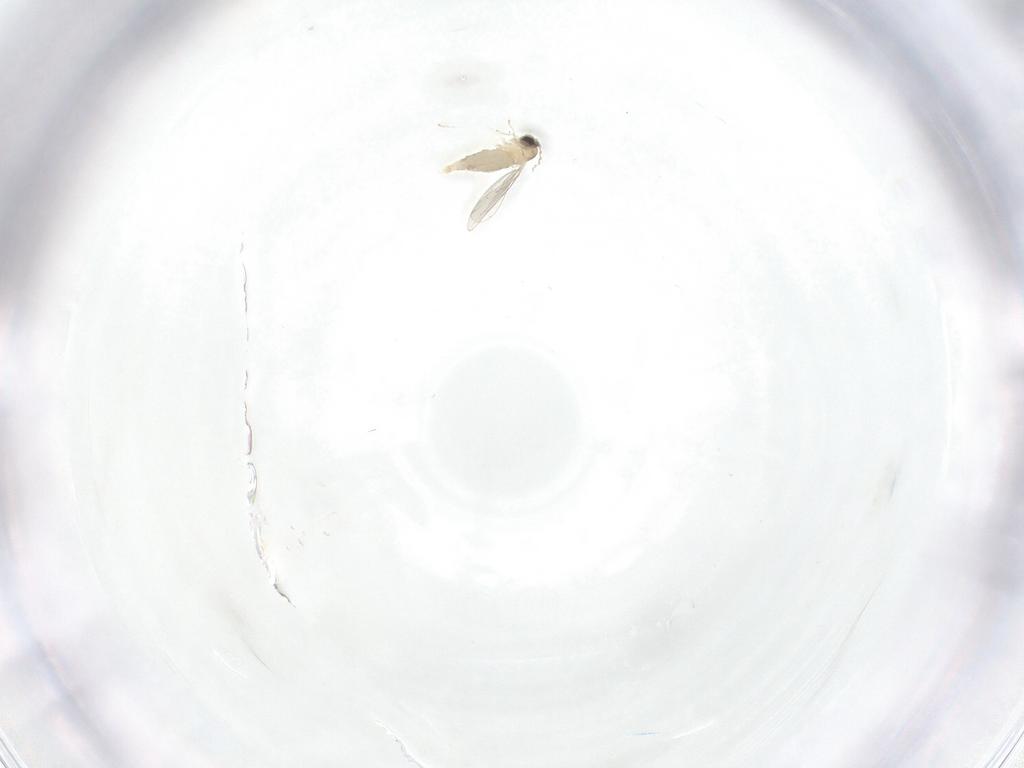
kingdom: Animalia
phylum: Arthropoda
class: Insecta
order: Diptera
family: Cecidomyiidae
